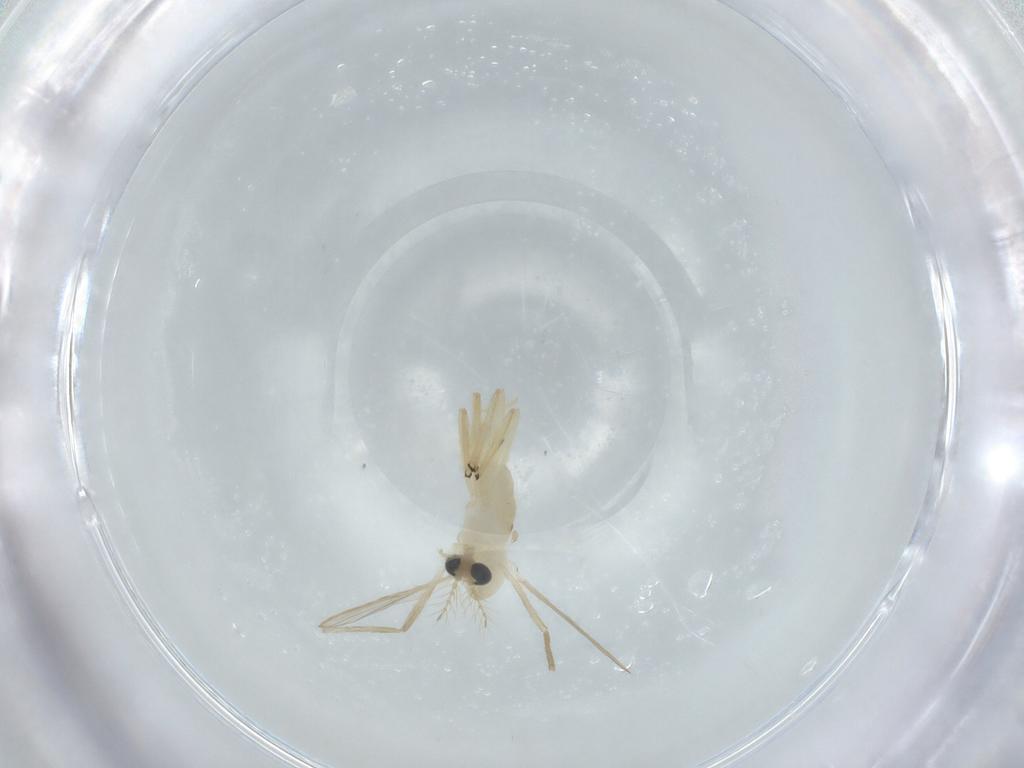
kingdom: Animalia
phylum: Arthropoda
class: Insecta
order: Diptera
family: Chironomidae
